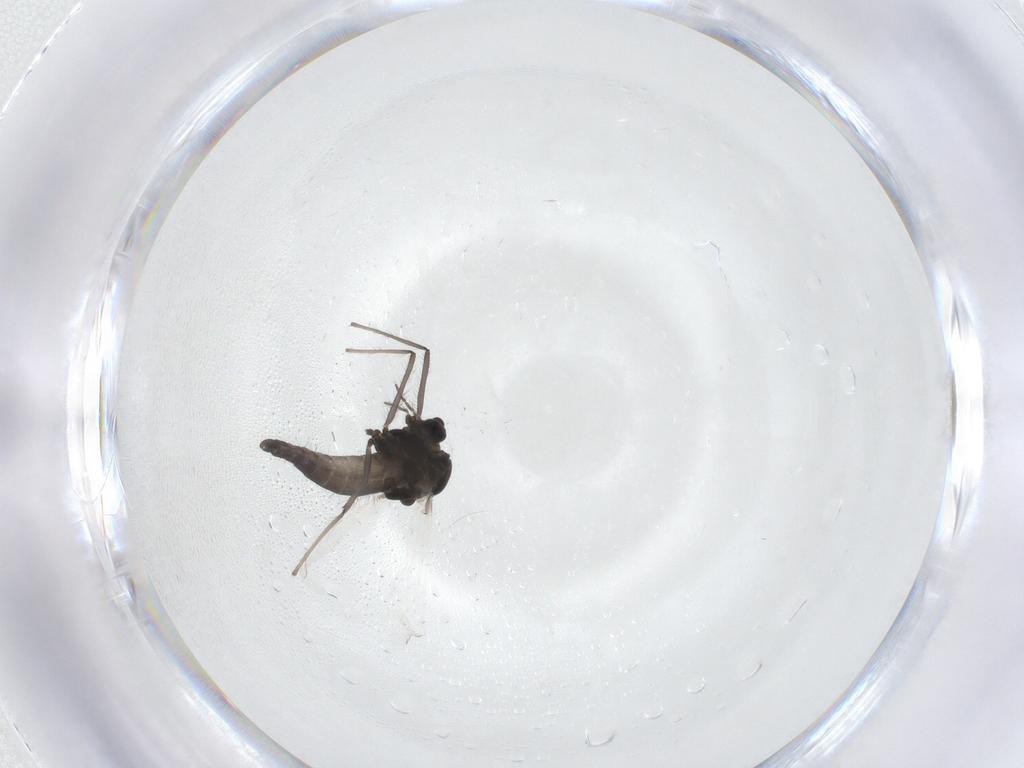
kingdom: Animalia
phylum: Arthropoda
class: Insecta
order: Diptera
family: Chironomidae
